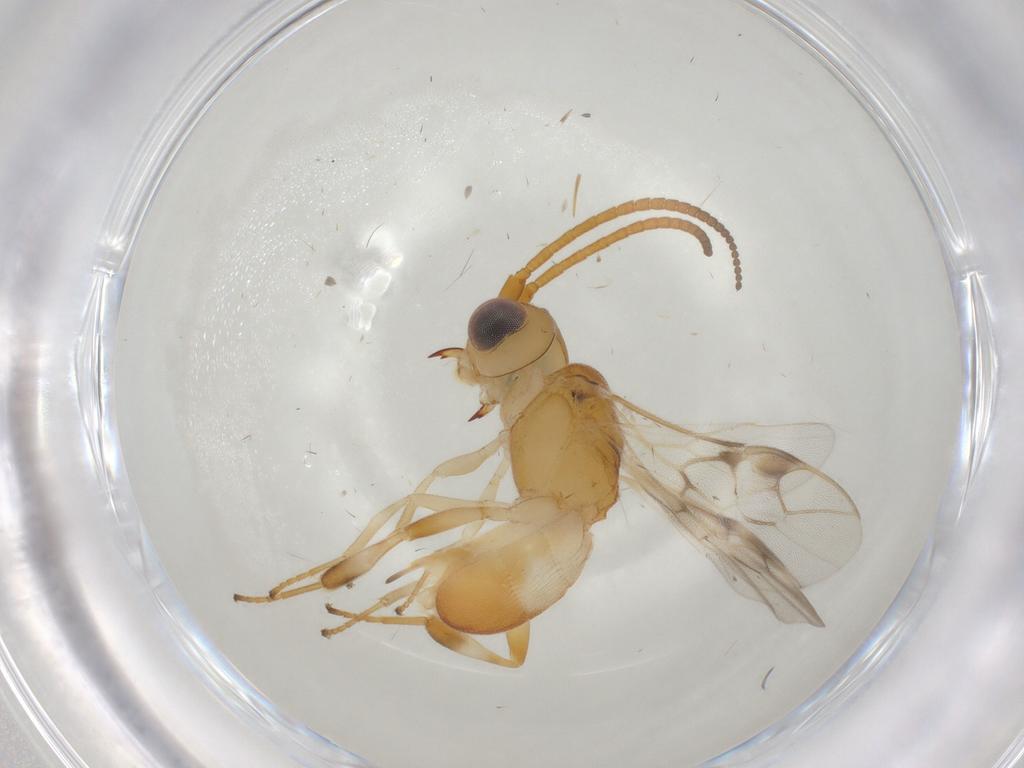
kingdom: Animalia
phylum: Arthropoda
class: Insecta
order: Hymenoptera
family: Braconidae
